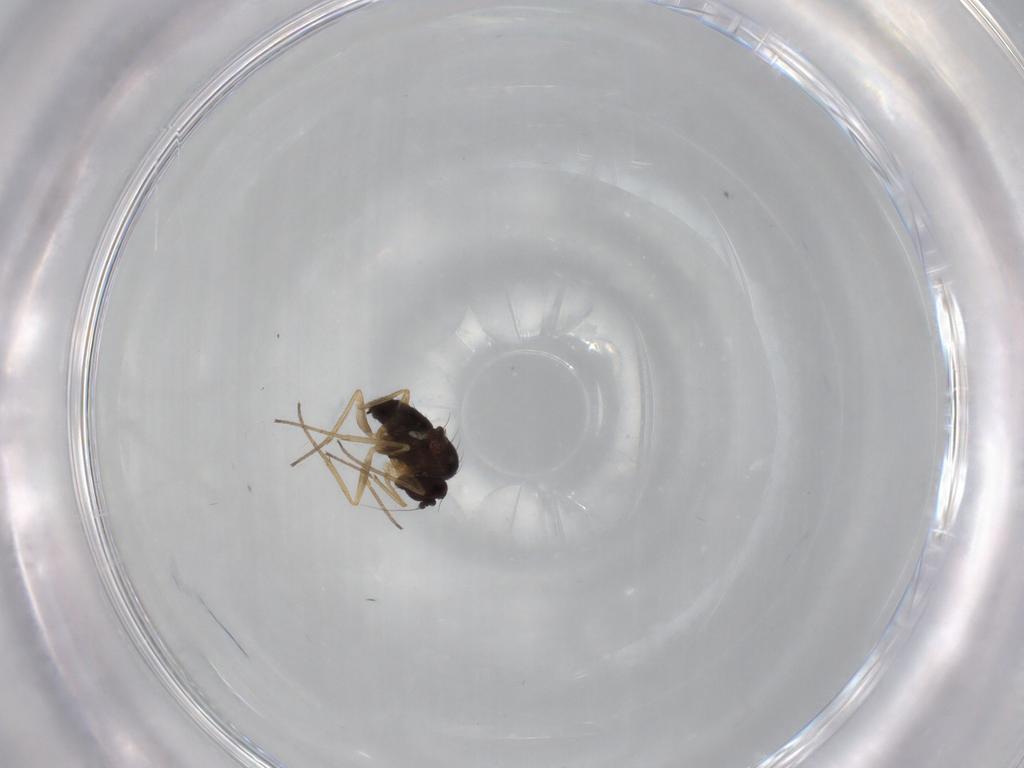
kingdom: Animalia
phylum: Arthropoda
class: Insecta
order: Diptera
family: Dolichopodidae
